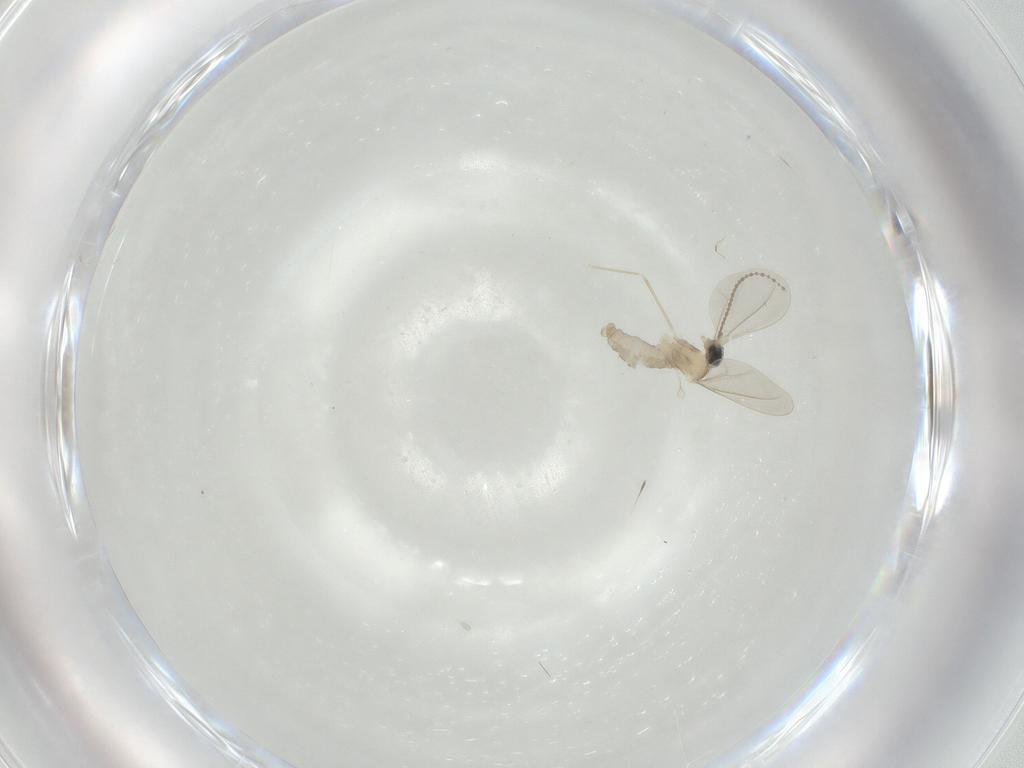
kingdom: Animalia
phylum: Arthropoda
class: Insecta
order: Diptera
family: Cecidomyiidae
